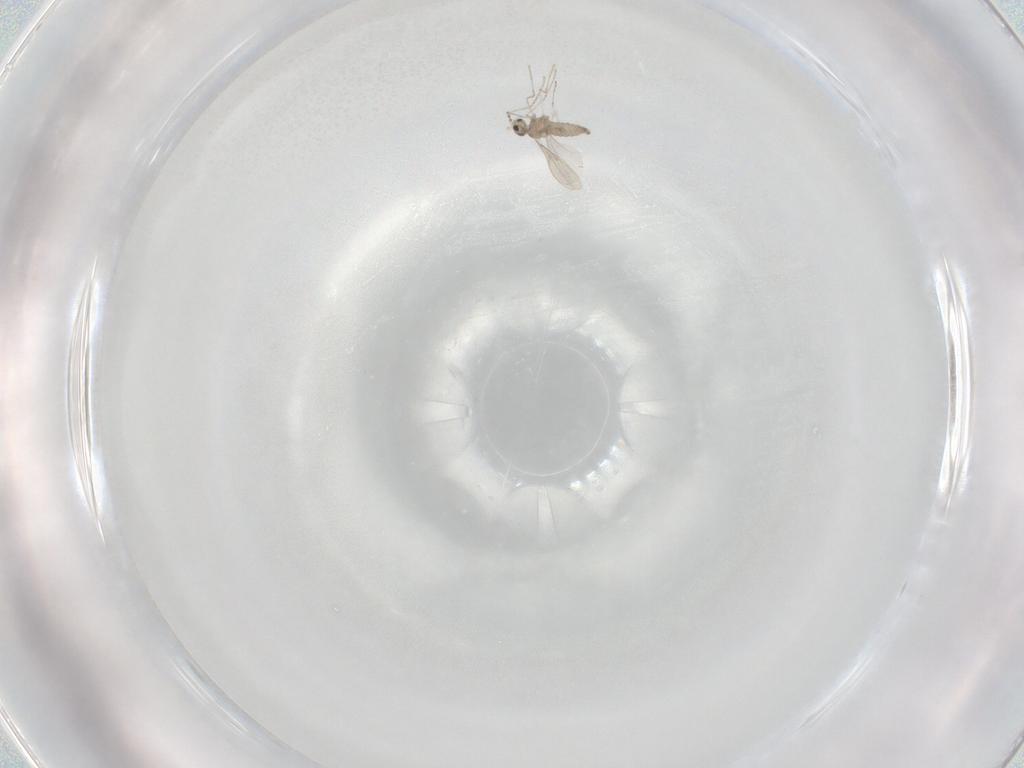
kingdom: Animalia
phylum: Arthropoda
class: Insecta
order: Diptera
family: Cecidomyiidae
